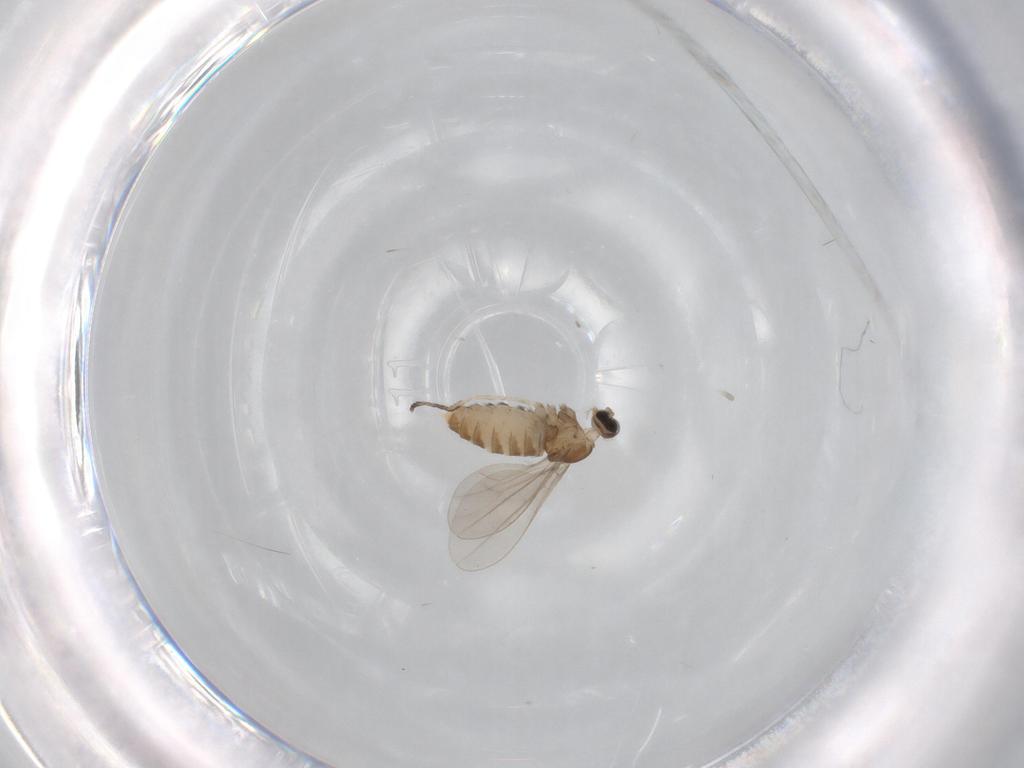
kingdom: Animalia
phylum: Arthropoda
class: Insecta
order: Diptera
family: Cecidomyiidae
